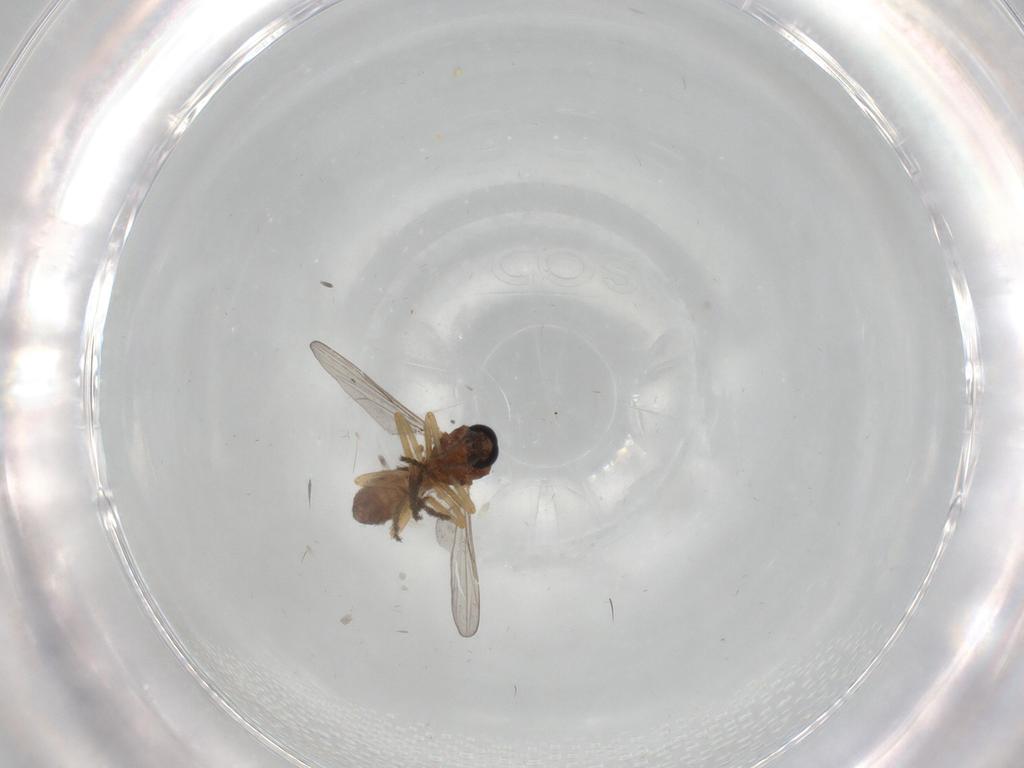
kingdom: Animalia
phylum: Arthropoda
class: Insecta
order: Diptera
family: Ceratopogonidae
